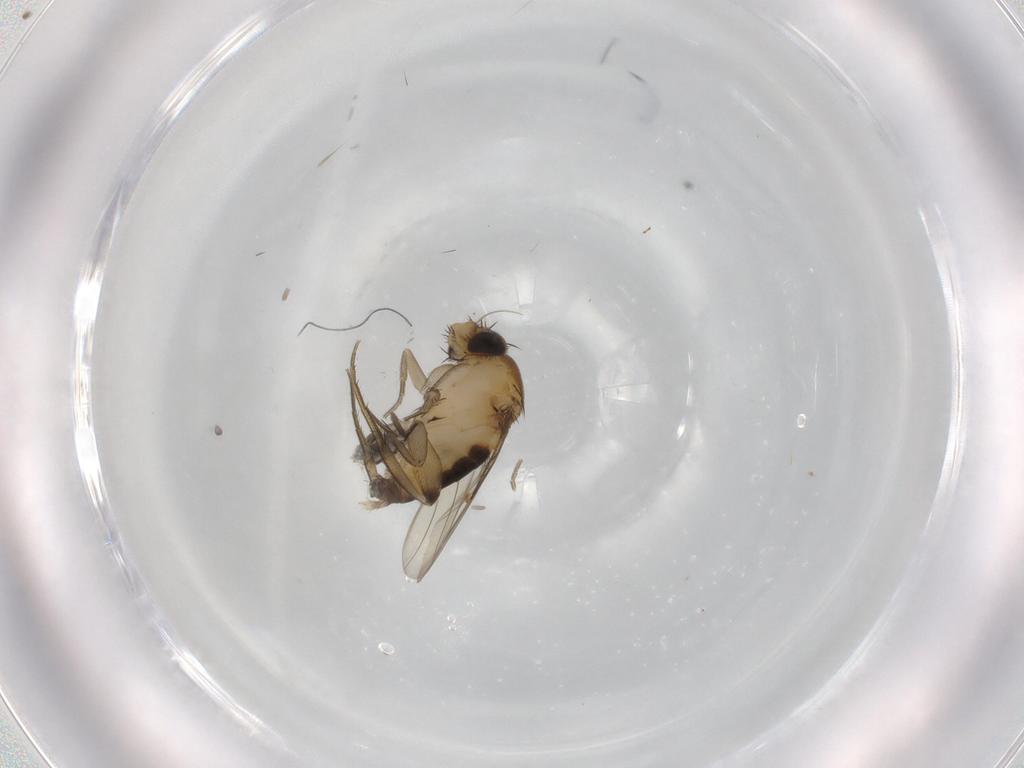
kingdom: Animalia
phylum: Arthropoda
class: Insecta
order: Diptera
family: Phoridae
